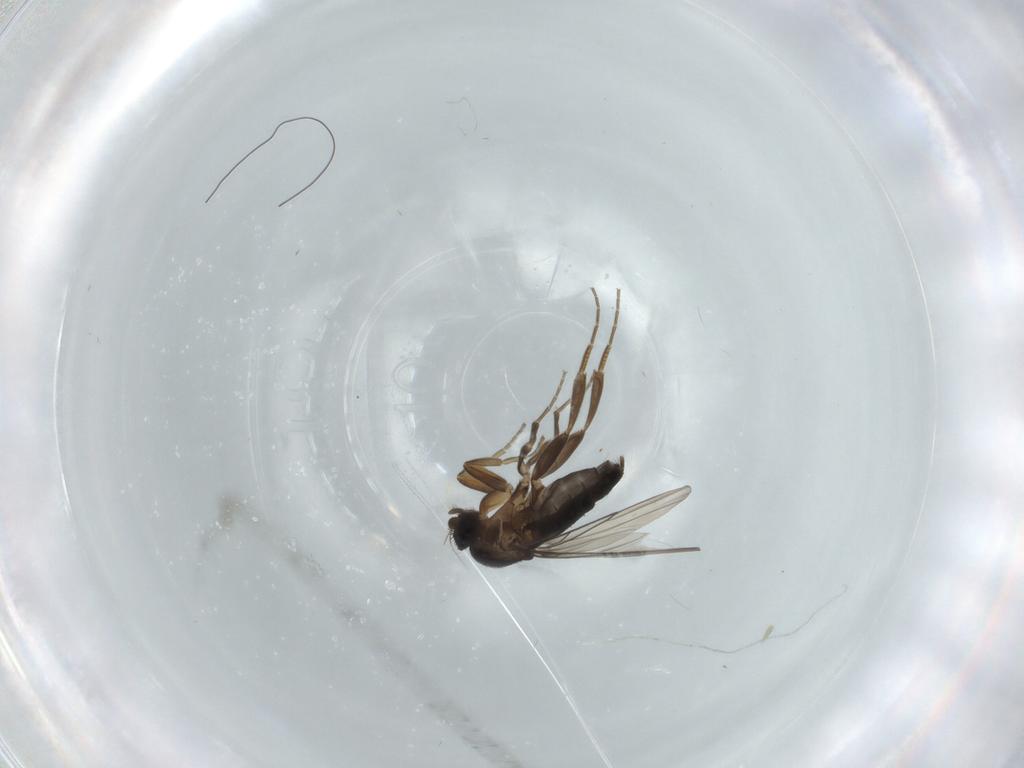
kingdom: Animalia
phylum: Arthropoda
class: Insecta
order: Diptera
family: Phoridae
